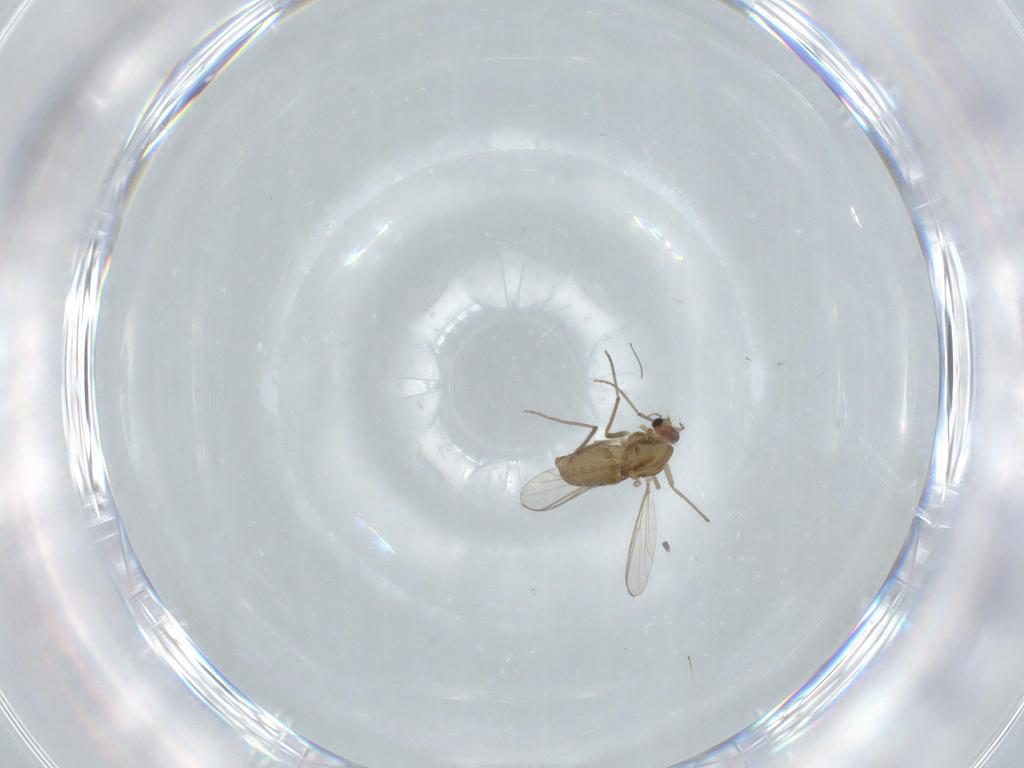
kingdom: Animalia
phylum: Arthropoda
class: Insecta
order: Diptera
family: Chironomidae
